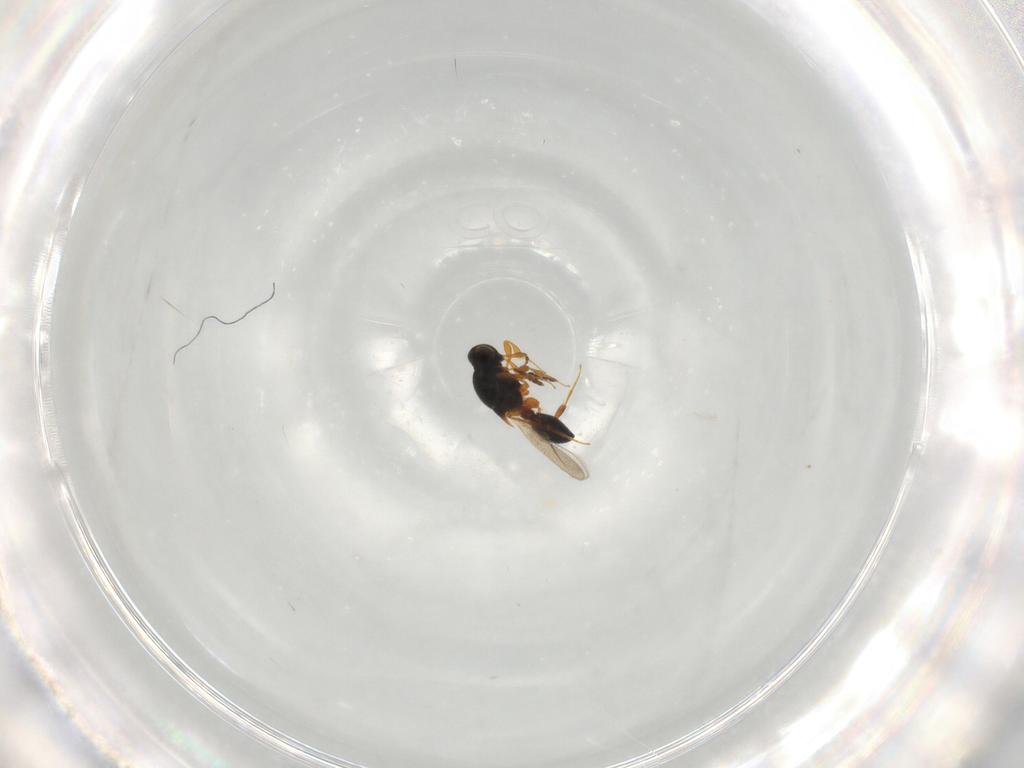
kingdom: Animalia
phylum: Arthropoda
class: Insecta
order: Hymenoptera
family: Platygastridae
